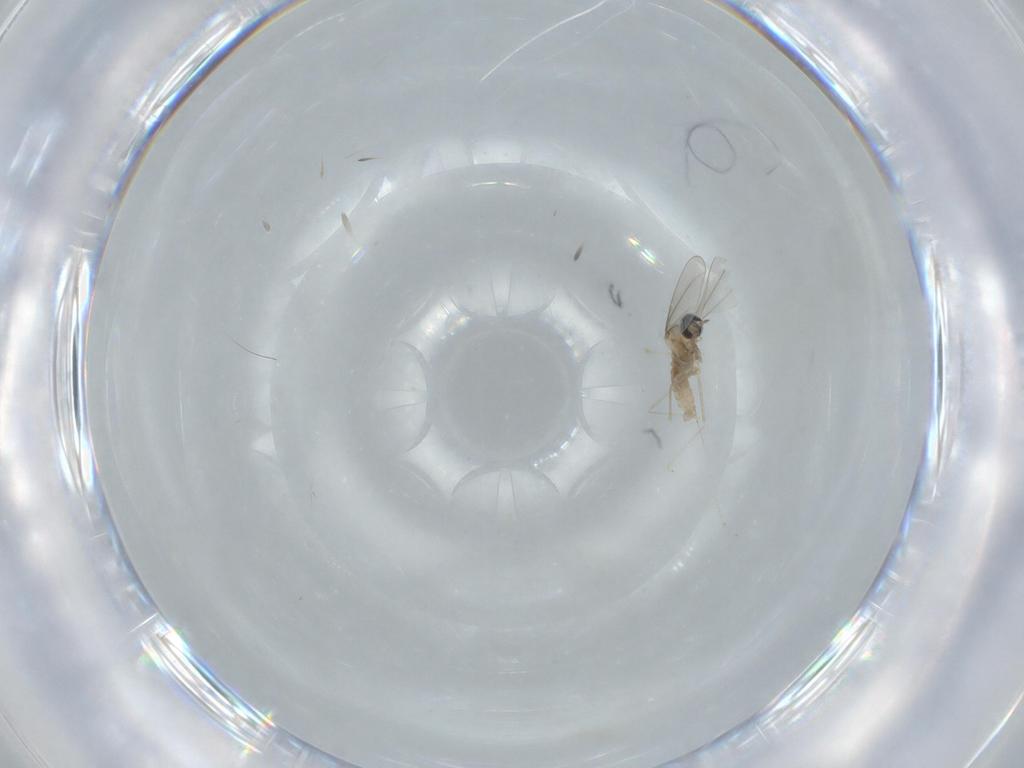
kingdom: Animalia
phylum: Arthropoda
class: Insecta
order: Diptera
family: Cecidomyiidae
